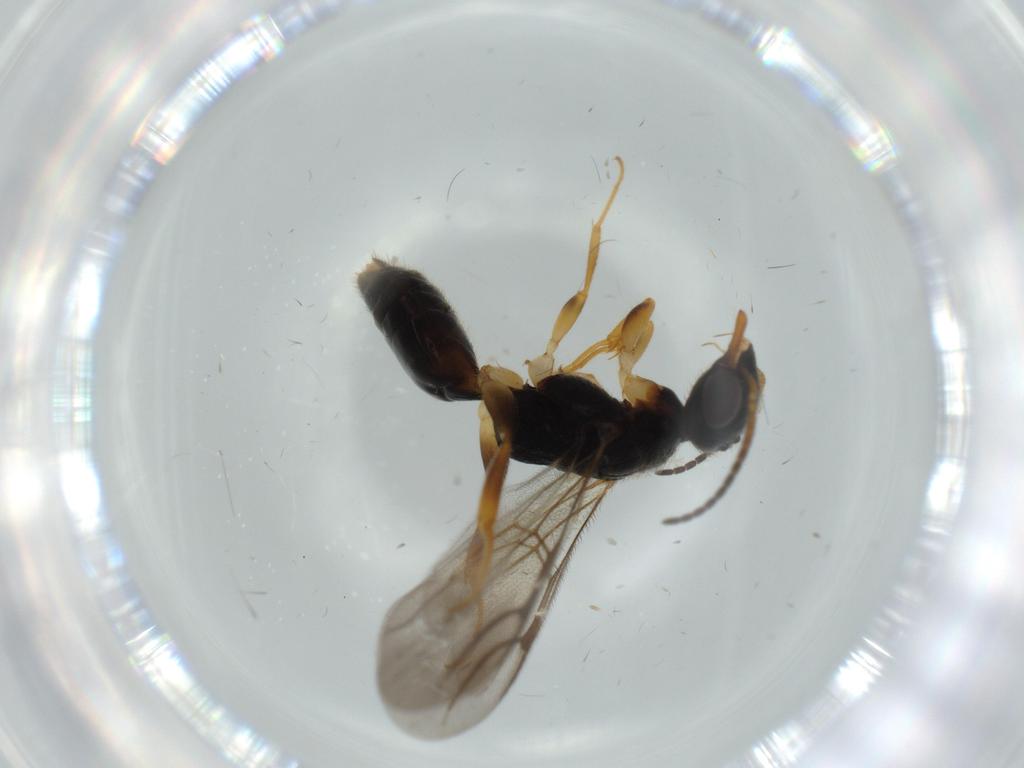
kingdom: Animalia
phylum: Arthropoda
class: Insecta
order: Hymenoptera
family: Bethylidae
